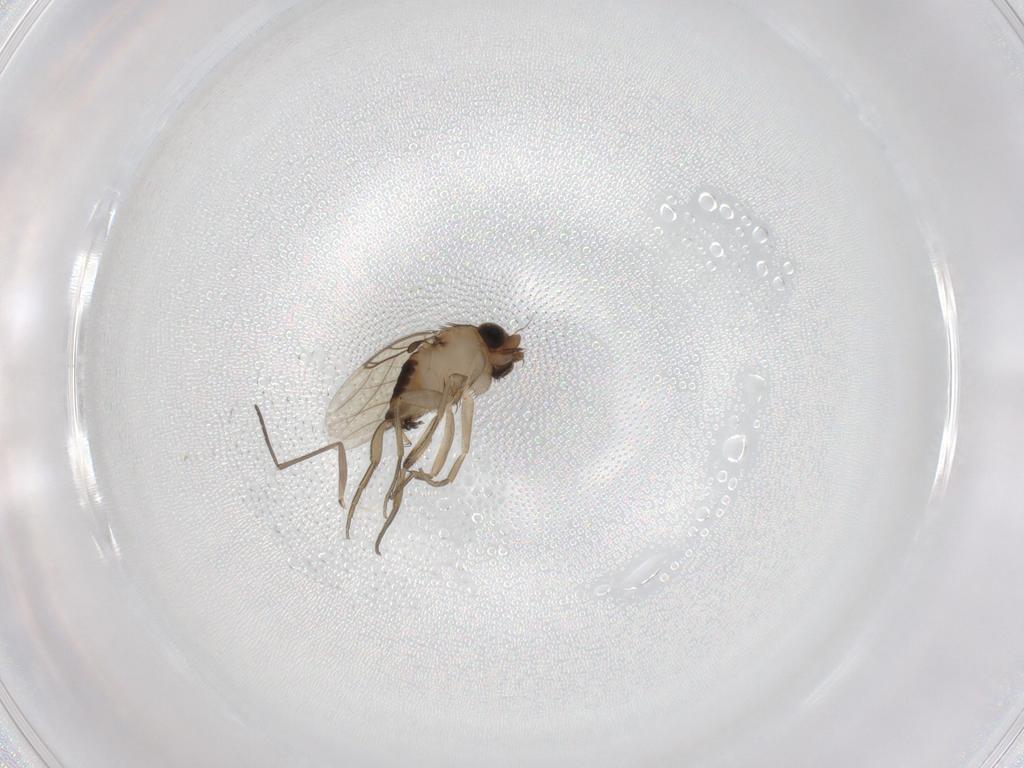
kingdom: Animalia
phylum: Arthropoda
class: Insecta
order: Diptera
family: Phoridae
